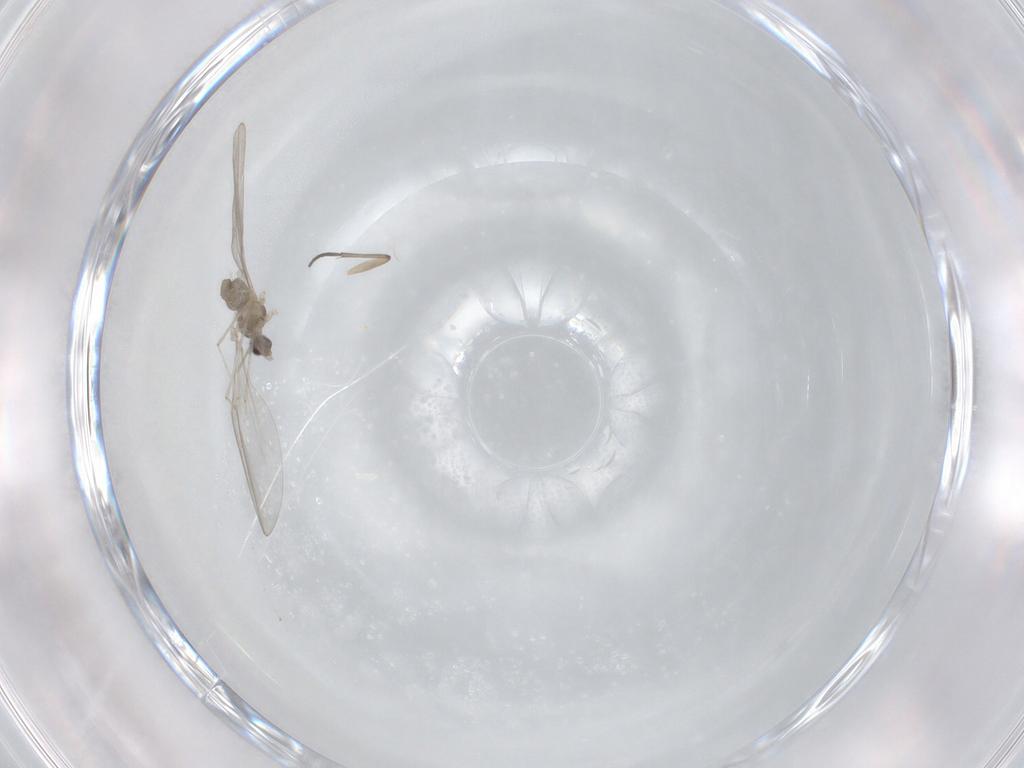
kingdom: Animalia
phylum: Arthropoda
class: Insecta
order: Diptera
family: Cecidomyiidae
